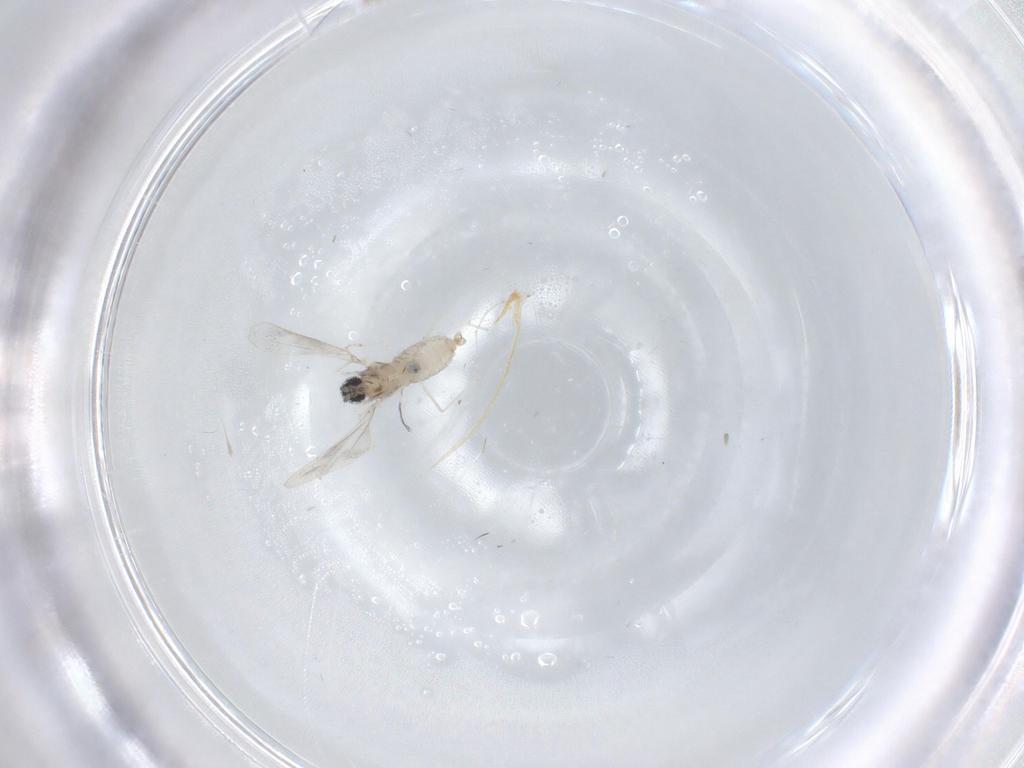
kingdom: Animalia
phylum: Arthropoda
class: Insecta
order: Diptera
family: Cecidomyiidae
